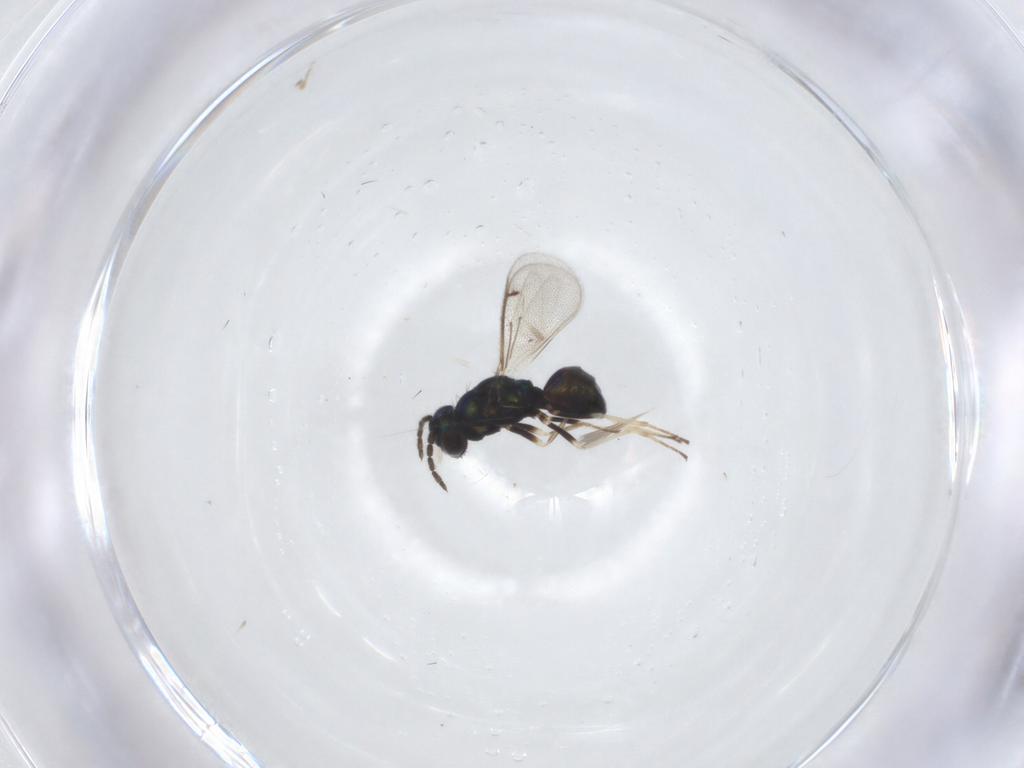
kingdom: Animalia
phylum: Arthropoda
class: Insecta
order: Hymenoptera
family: Eulophidae
